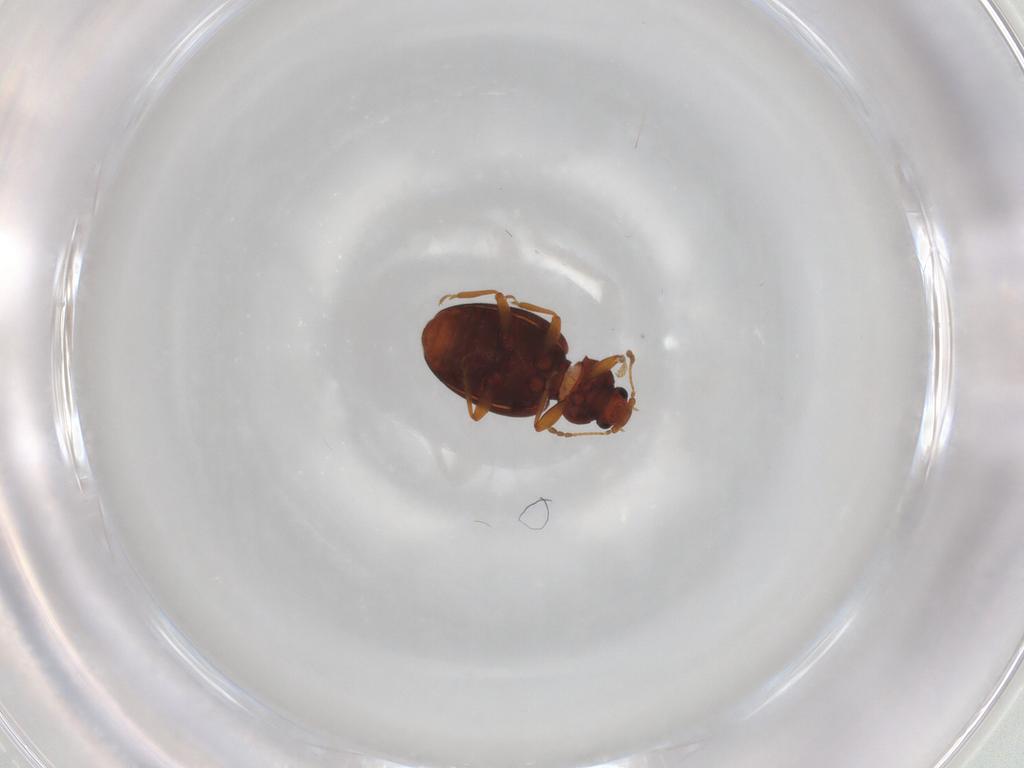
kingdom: Animalia
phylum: Arthropoda
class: Insecta
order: Coleoptera
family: Latridiidae
